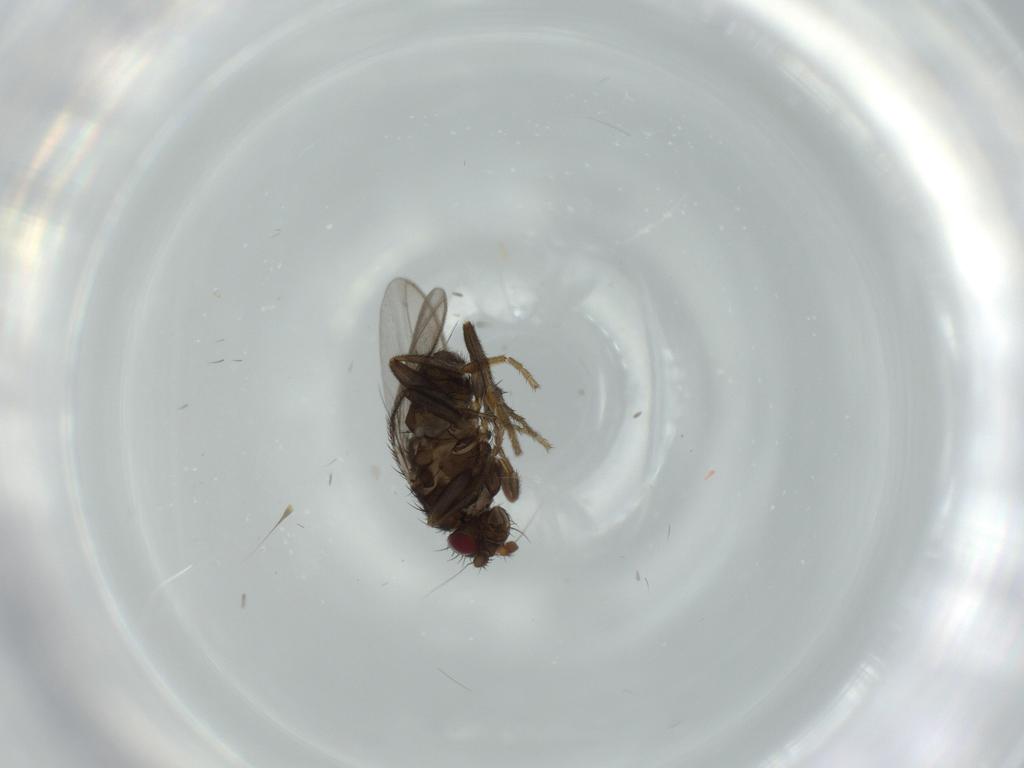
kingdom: Animalia
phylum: Arthropoda
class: Insecta
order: Diptera
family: Sphaeroceridae
